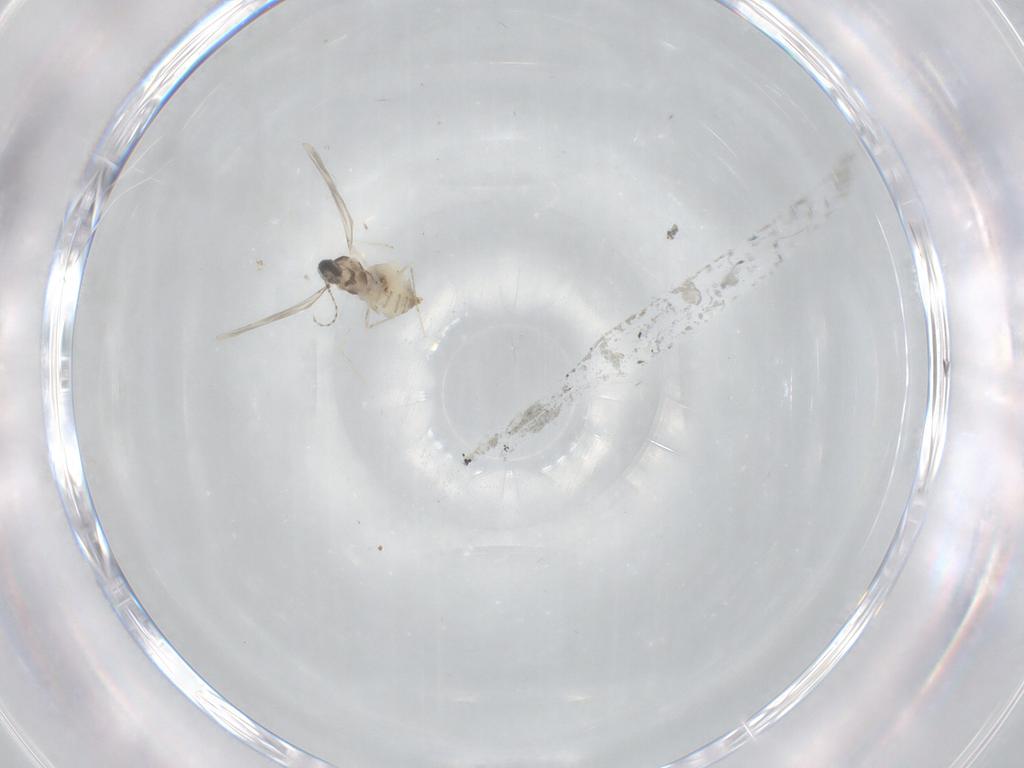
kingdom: Animalia
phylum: Arthropoda
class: Insecta
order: Diptera
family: Cecidomyiidae
